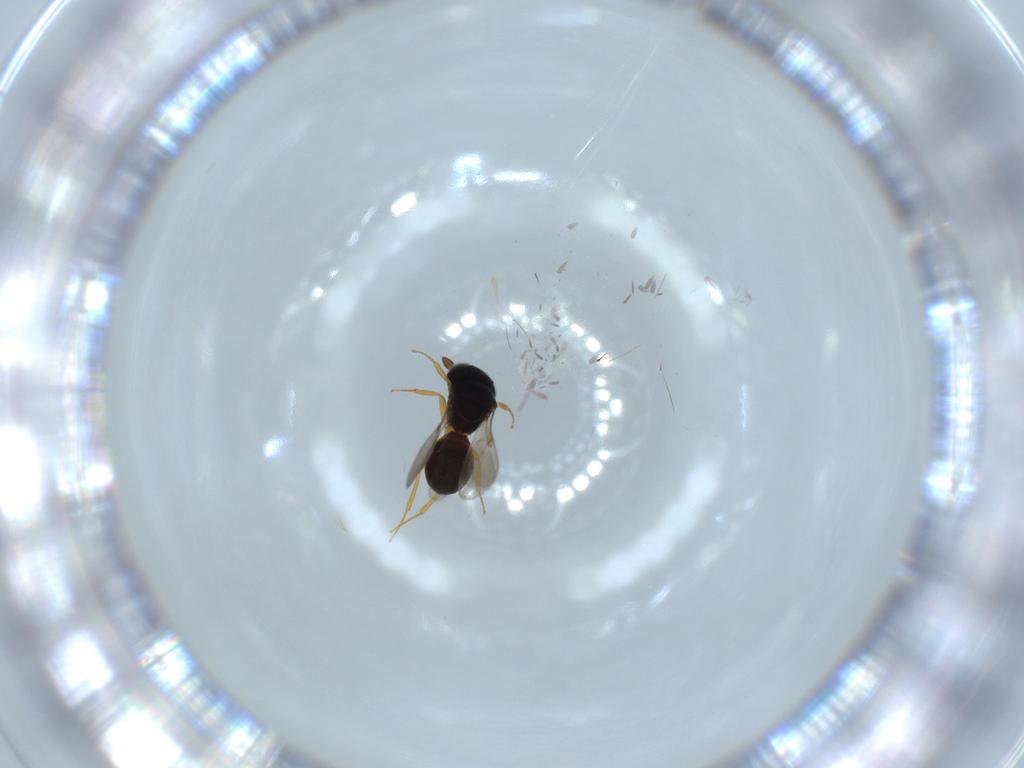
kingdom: Animalia
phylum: Arthropoda
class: Insecta
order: Hymenoptera
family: Scelionidae
